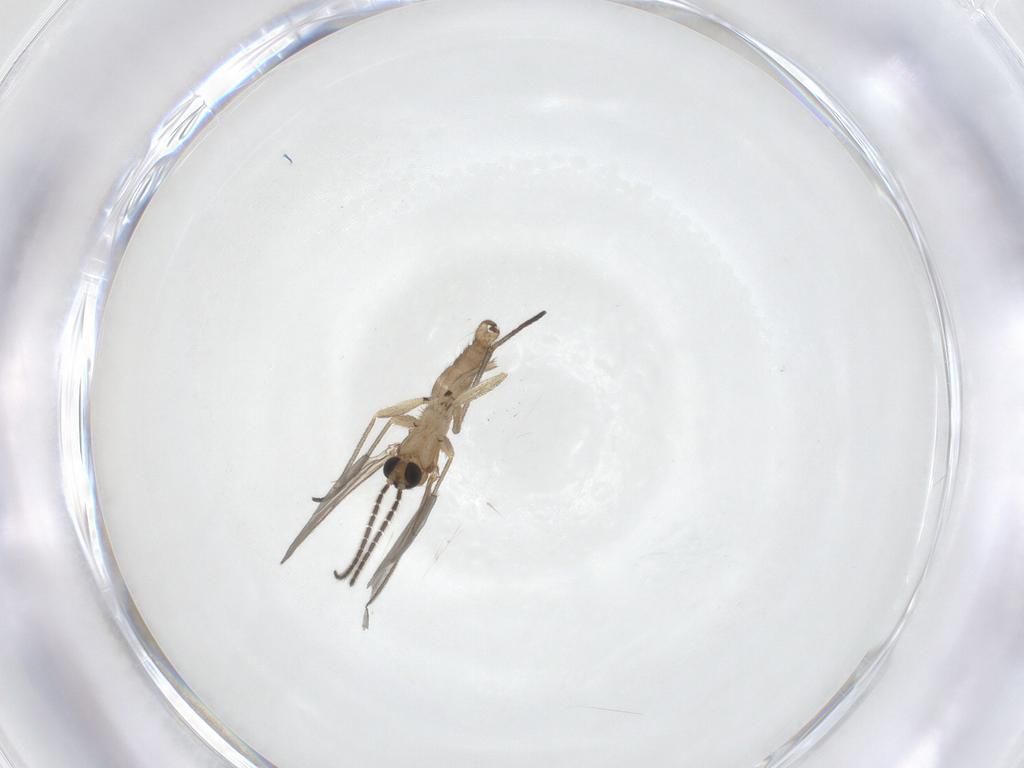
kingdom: Animalia
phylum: Arthropoda
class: Insecta
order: Diptera
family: Sciaridae
